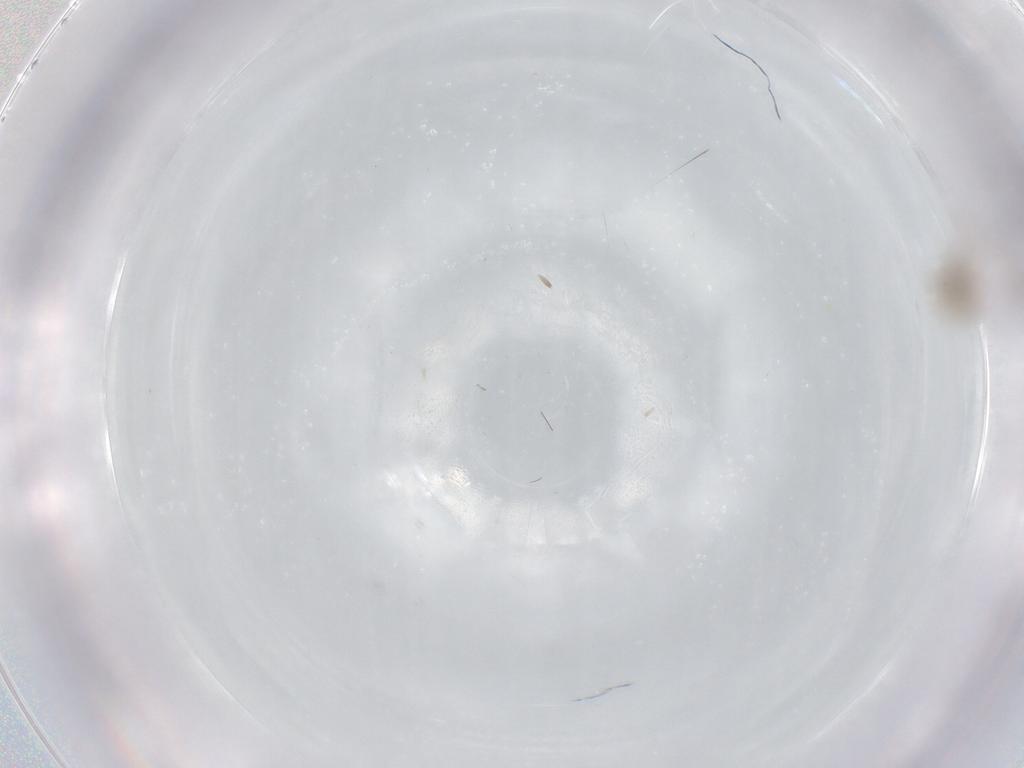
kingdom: Animalia
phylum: Arthropoda
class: Insecta
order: Diptera
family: Cecidomyiidae
